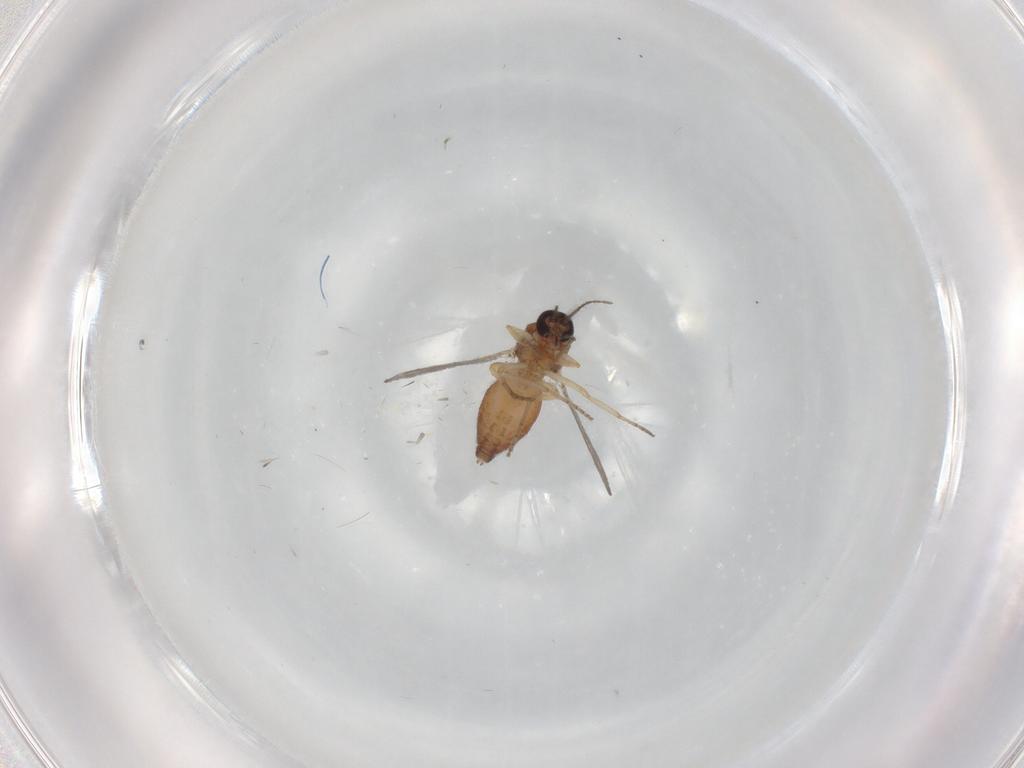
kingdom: Animalia
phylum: Arthropoda
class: Insecta
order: Diptera
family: Ceratopogonidae
